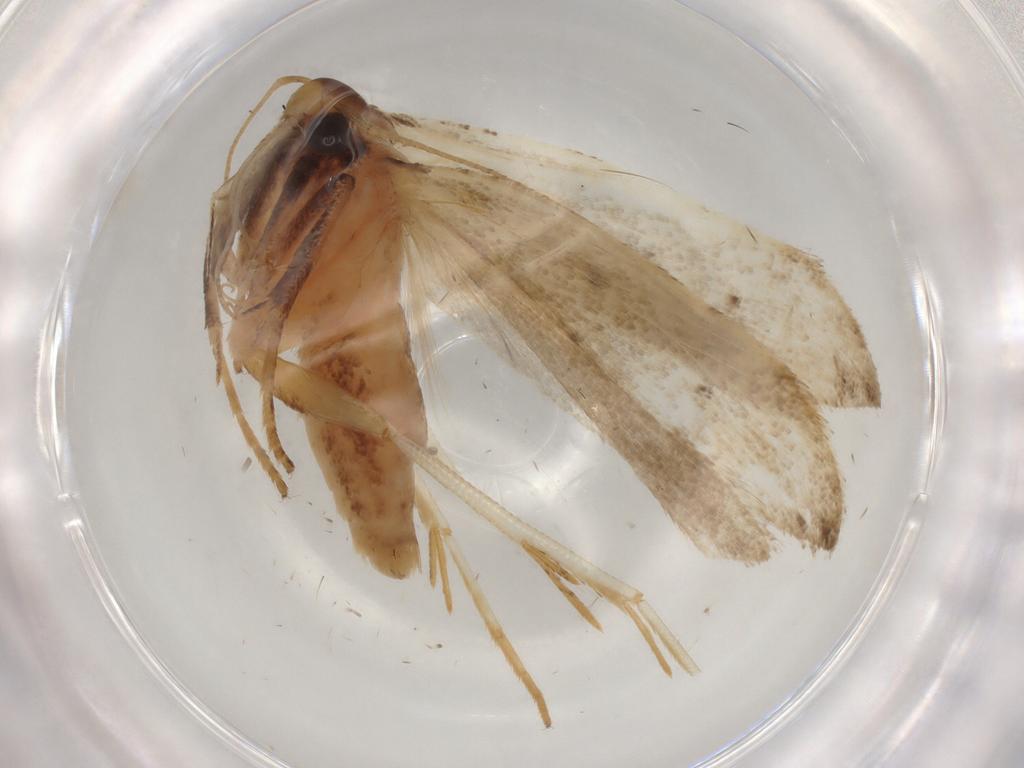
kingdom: Animalia
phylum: Arthropoda
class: Insecta
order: Lepidoptera
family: Gelechiidae
